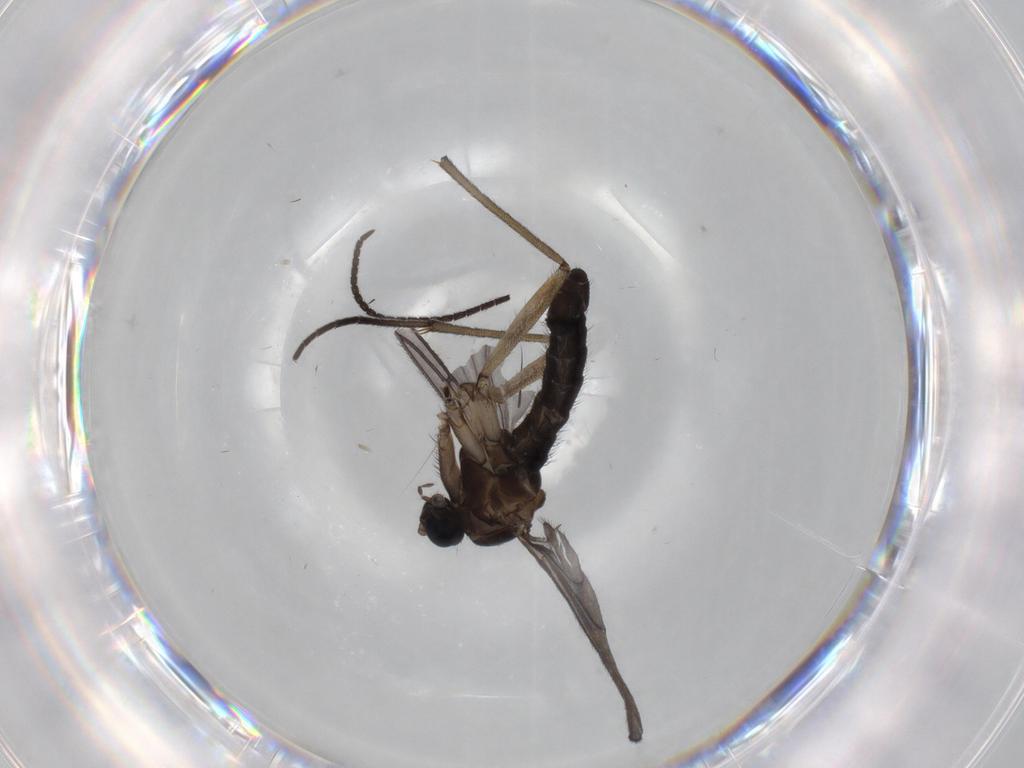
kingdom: Animalia
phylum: Arthropoda
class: Insecta
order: Diptera
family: Sciaridae
